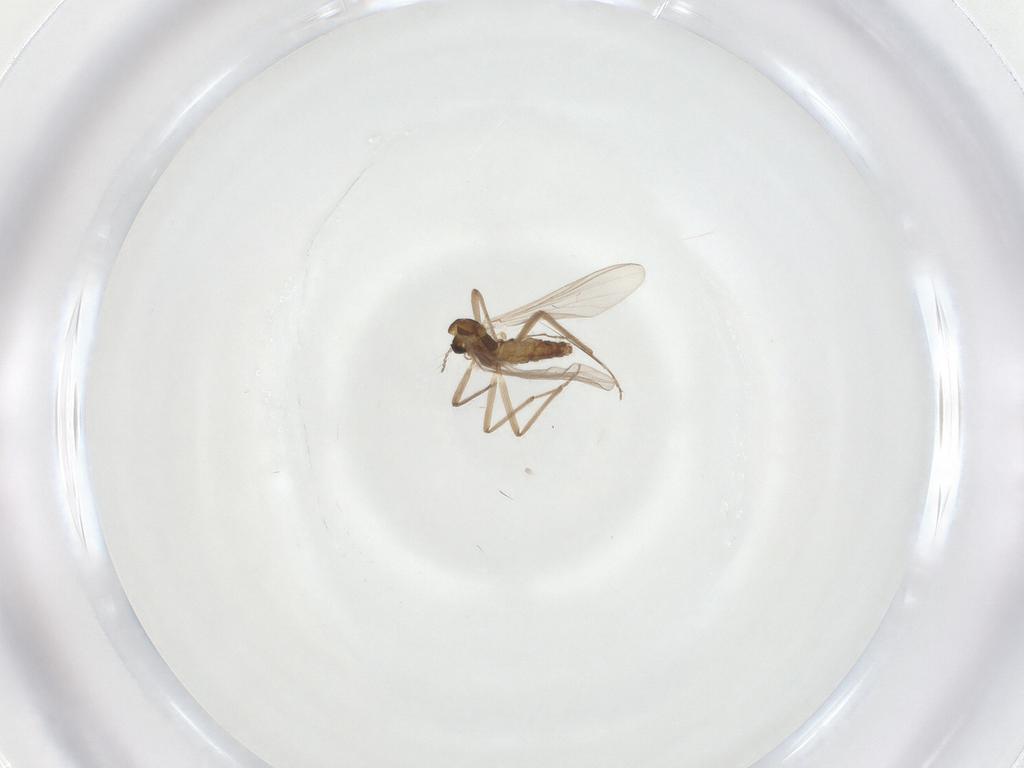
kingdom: Animalia
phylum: Arthropoda
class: Insecta
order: Diptera
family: Chironomidae
